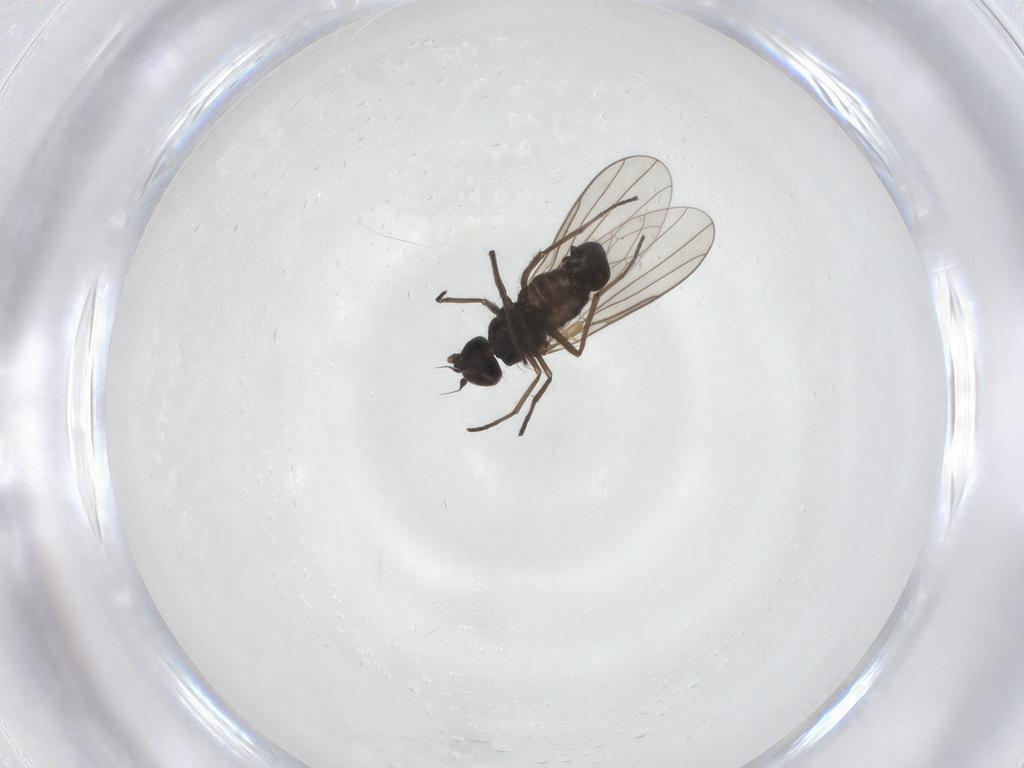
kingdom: Animalia
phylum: Arthropoda
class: Insecta
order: Diptera
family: Dolichopodidae
